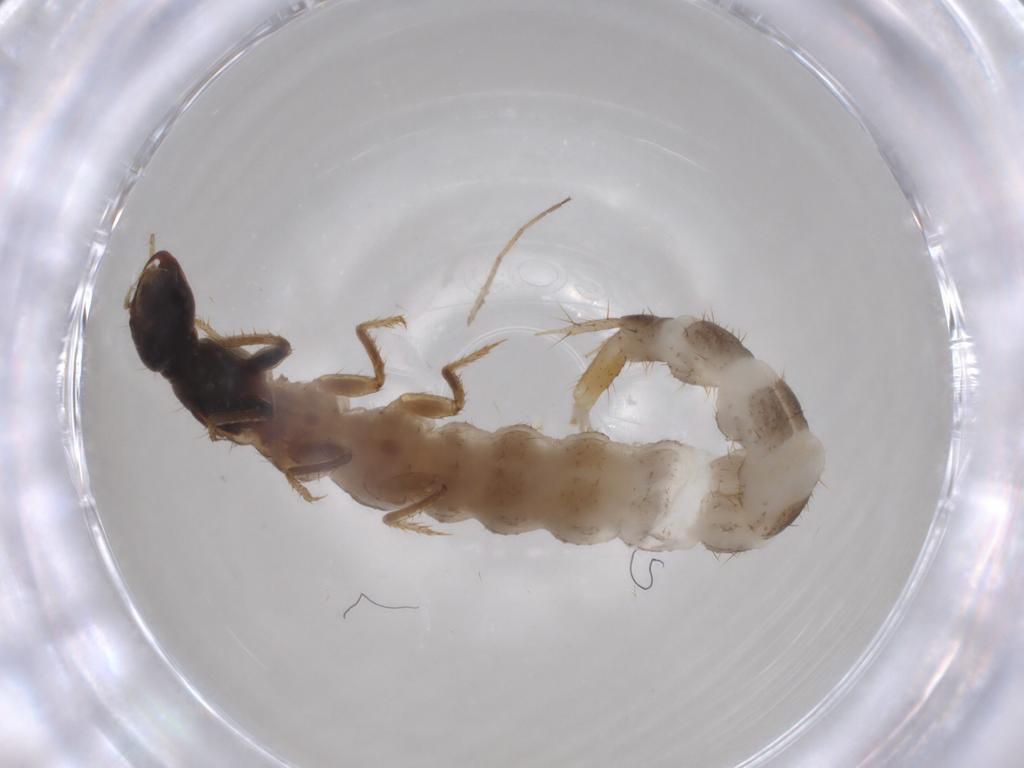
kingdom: Animalia
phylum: Arthropoda
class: Insecta
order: Coleoptera
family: Staphylinidae
